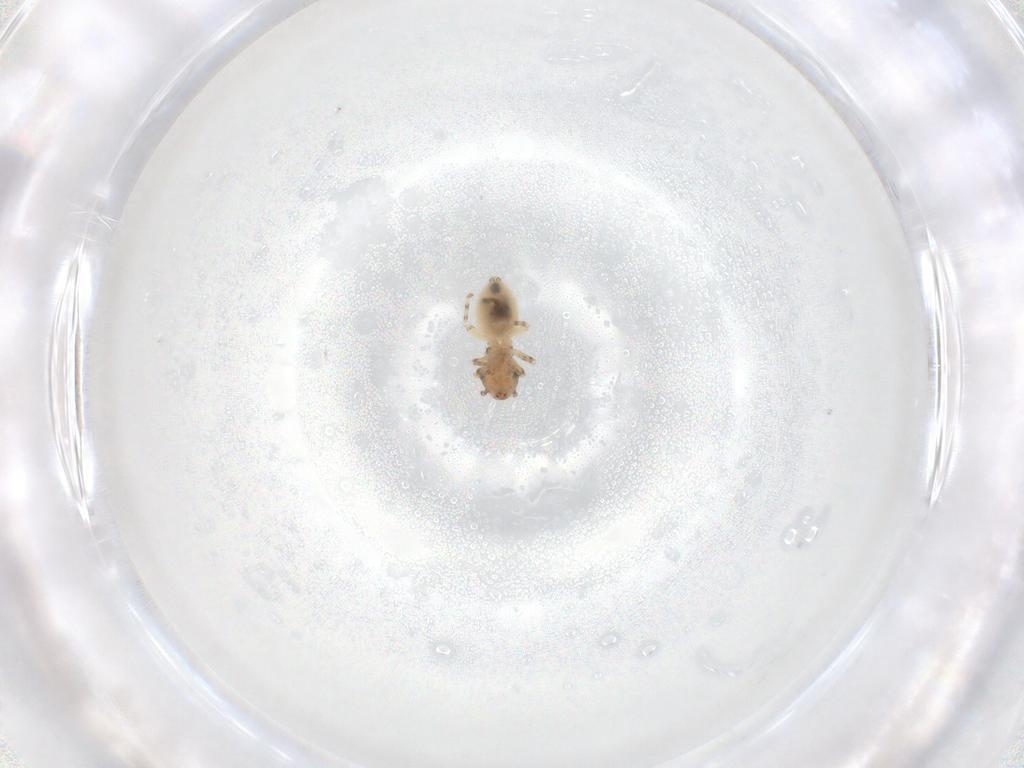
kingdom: Animalia
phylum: Arthropoda
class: Insecta
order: Psocodea
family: Lepidopsocidae
